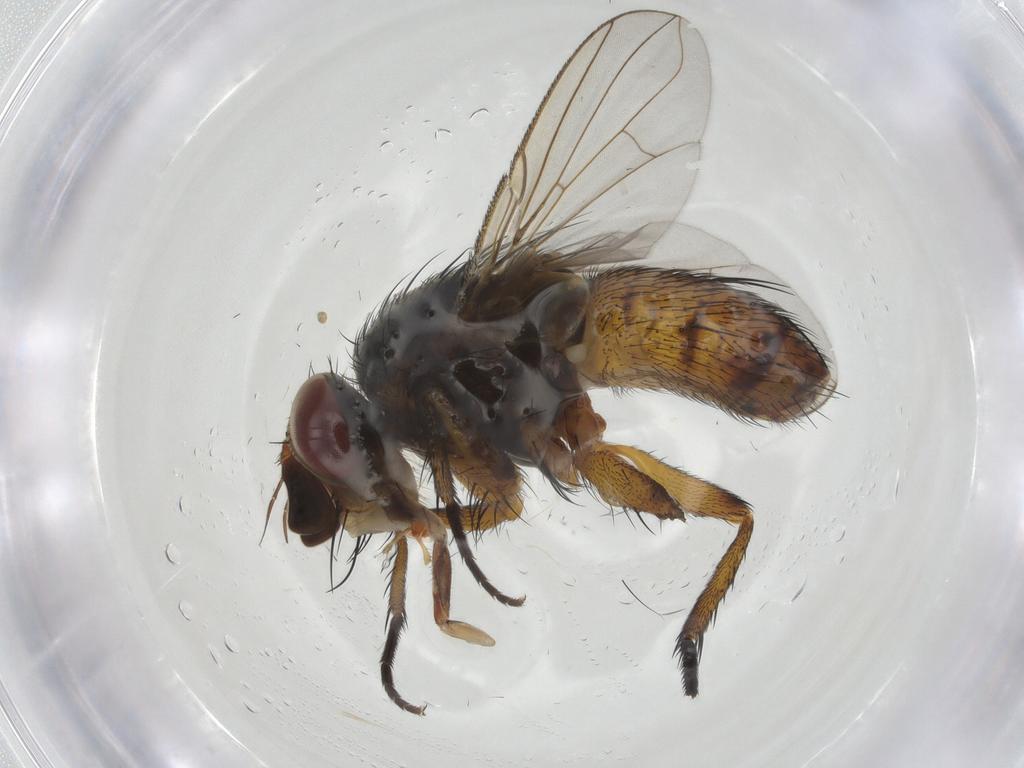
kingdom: Animalia
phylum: Arthropoda
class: Insecta
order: Diptera
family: Tachinidae
